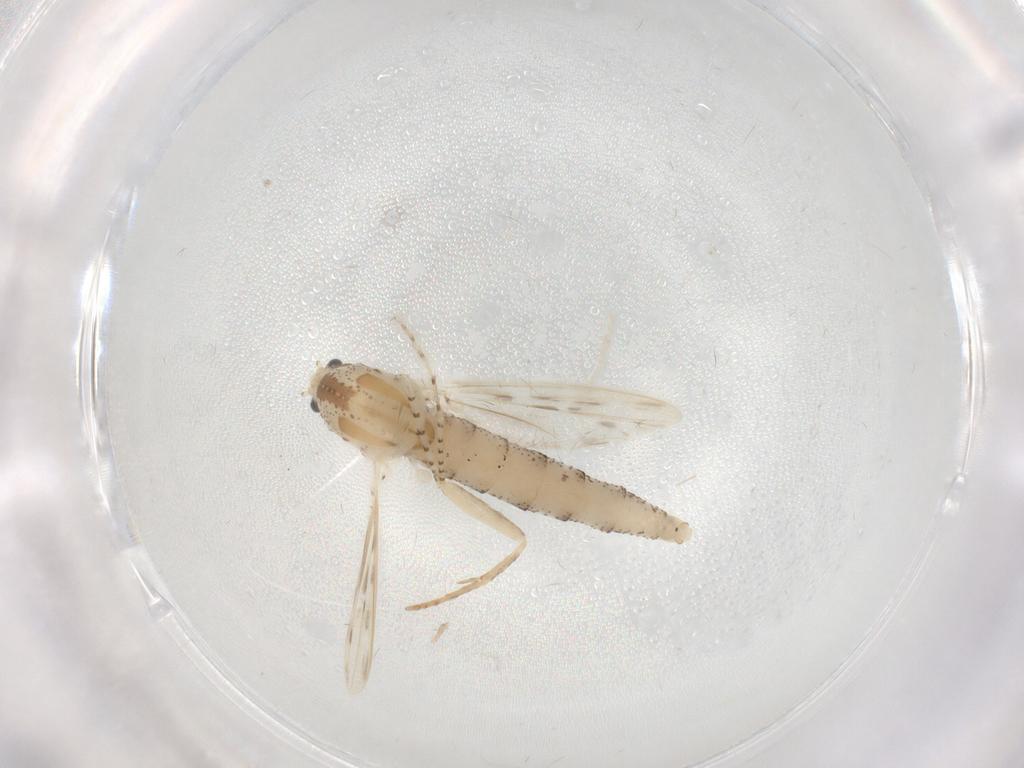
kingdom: Animalia
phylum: Arthropoda
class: Insecta
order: Diptera
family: Chaoboridae
